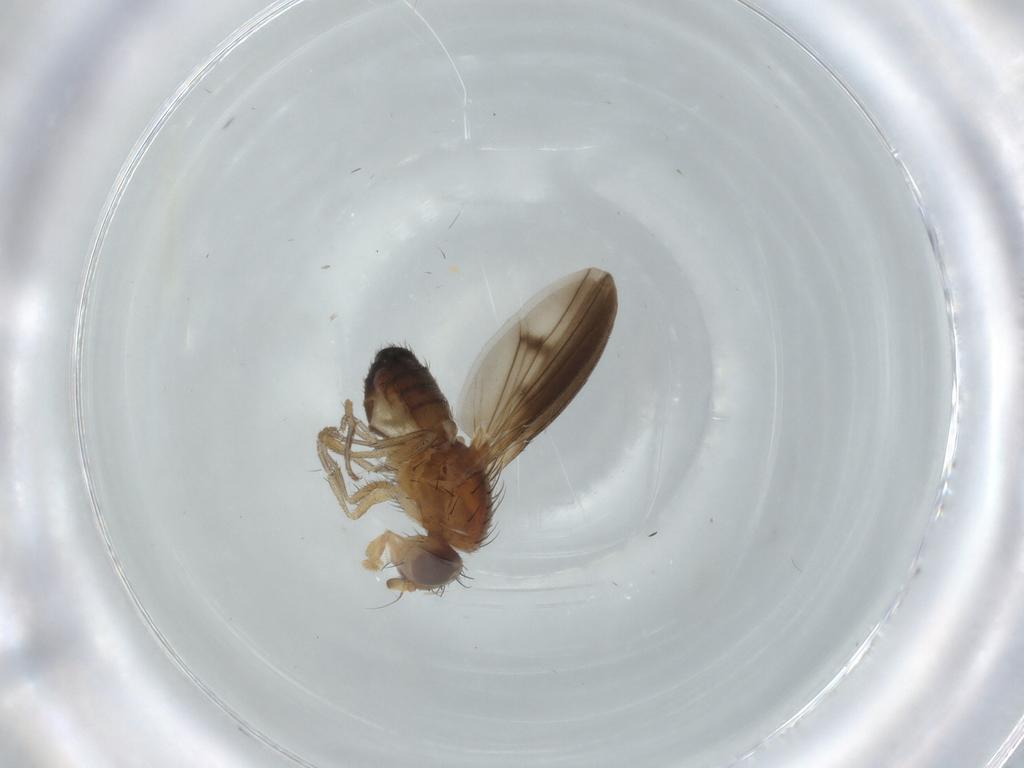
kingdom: Animalia
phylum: Arthropoda
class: Insecta
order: Diptera
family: Heleomyzidae
